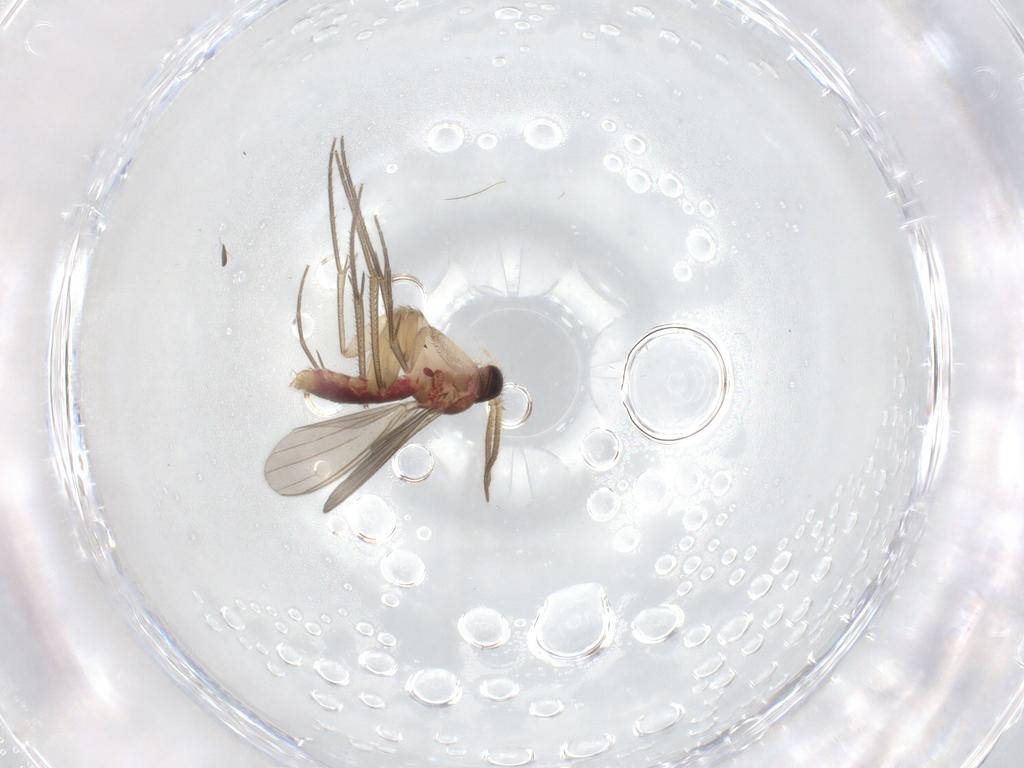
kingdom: Animalia
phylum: Arthropoda
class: Insecta
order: Diptera
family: Mycetophilidae
